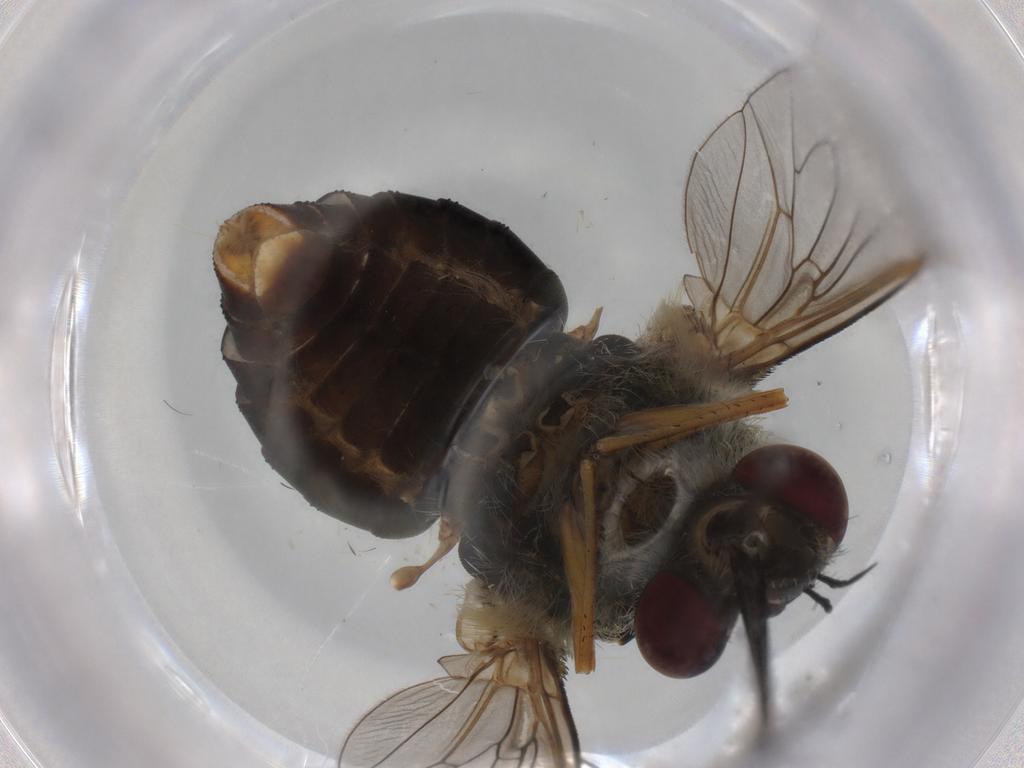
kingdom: Animalia
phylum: Arthropoda
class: Insecta
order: Diptera
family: Bombyliidae
